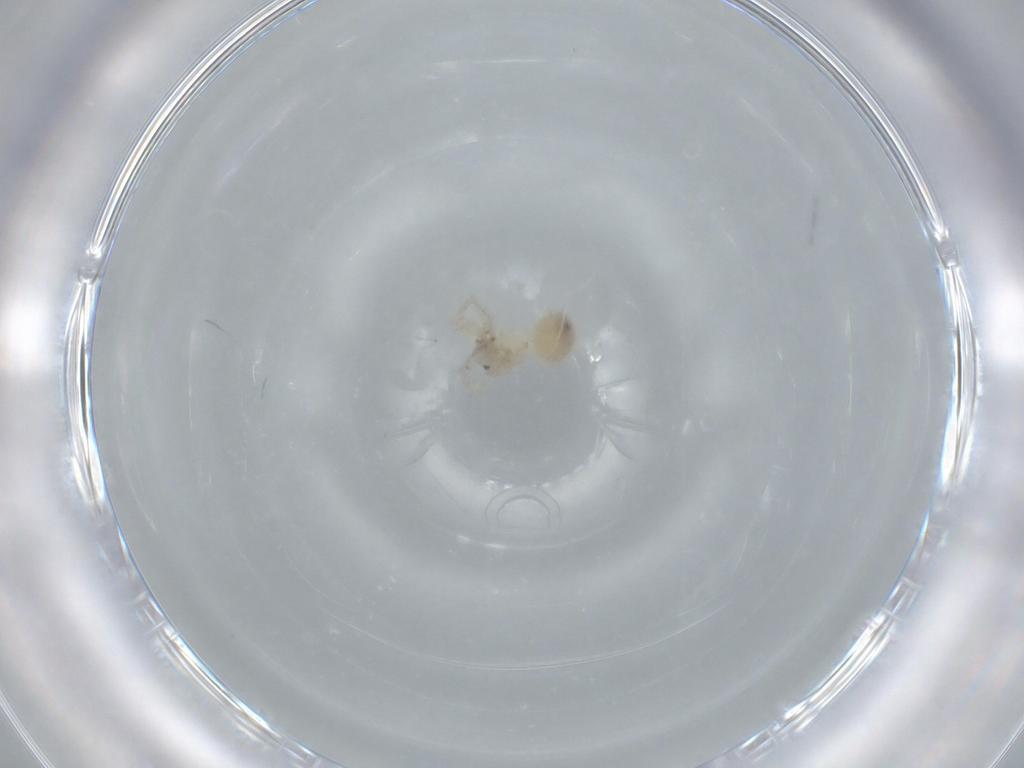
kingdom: Animalia
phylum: Arthropoda
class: Arachnida
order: Araneae
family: Oonopidae
